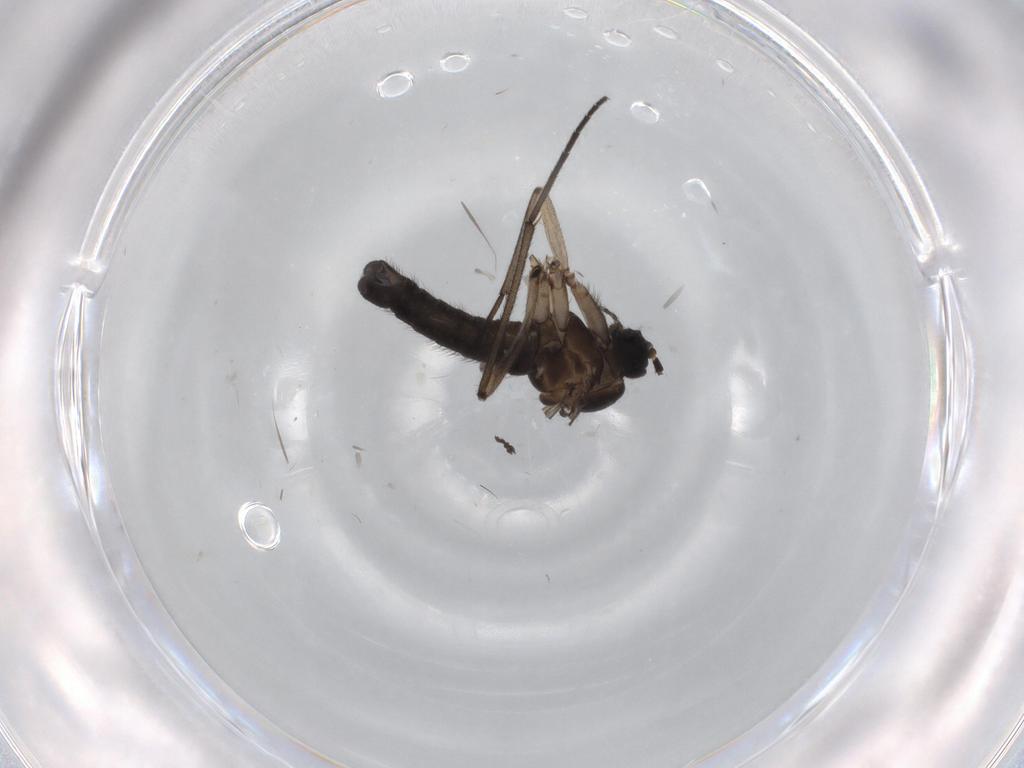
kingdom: Animalia
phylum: Arthropoda
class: Insecta
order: Diptera
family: Sciaridae
